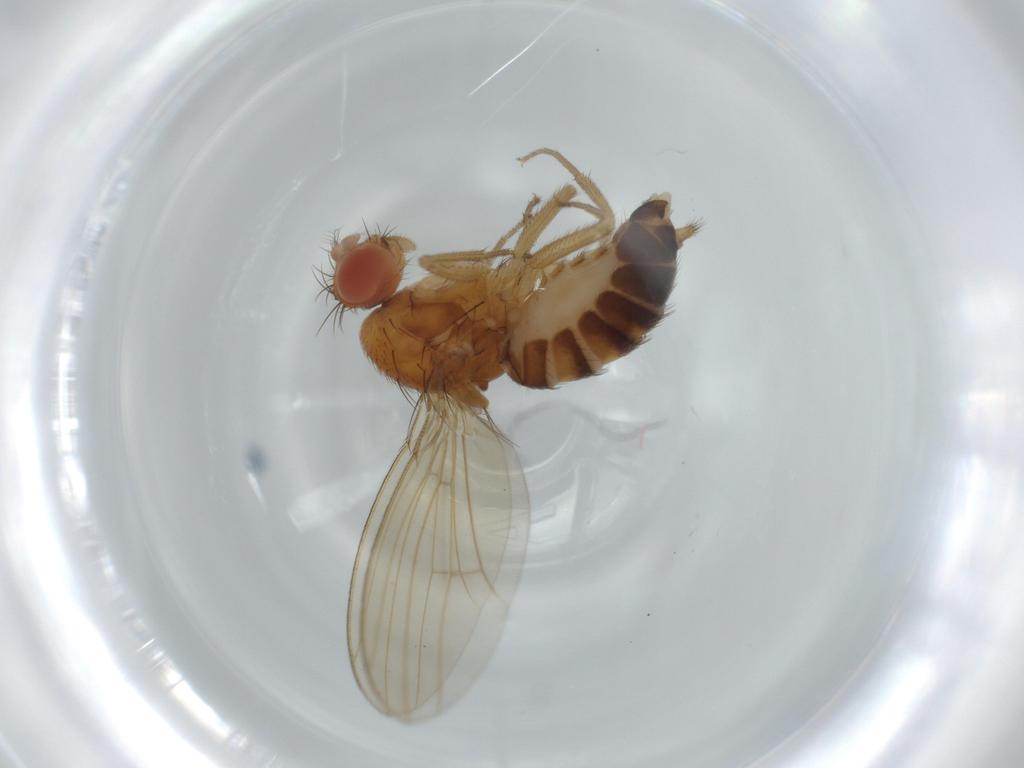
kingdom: Animalia
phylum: Arthropoda
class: Insecta
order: Diptera
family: Drosophilidae
